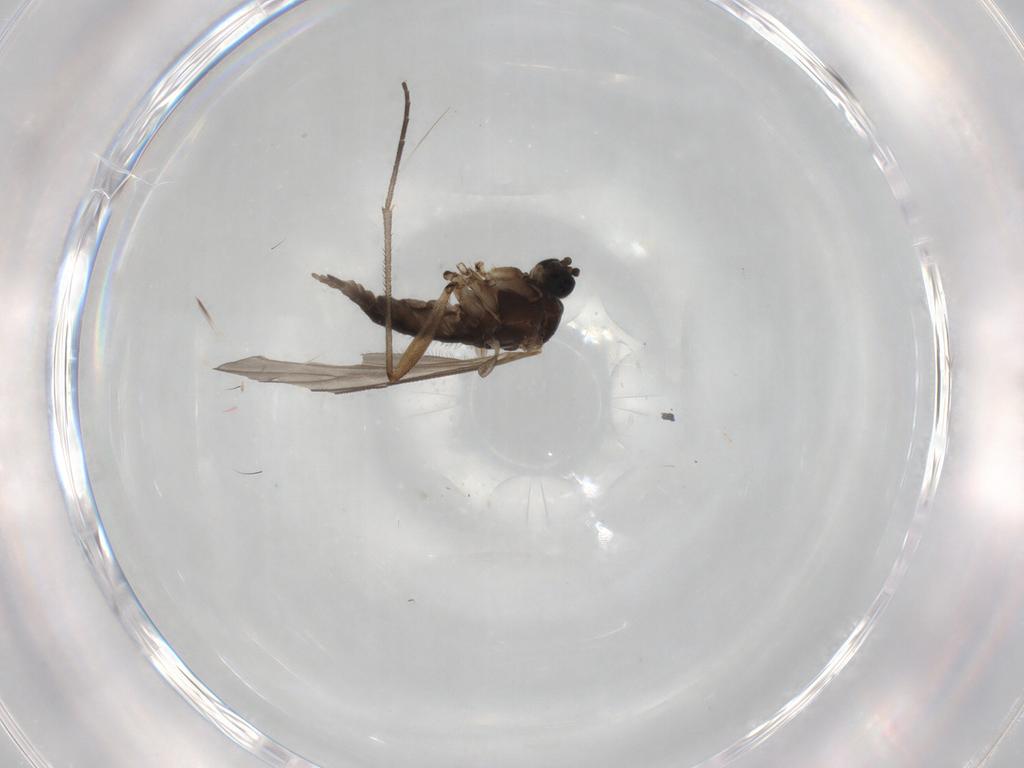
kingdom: Animalia
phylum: Arthropoda
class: Insecta
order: Diptera
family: Sciaridae
